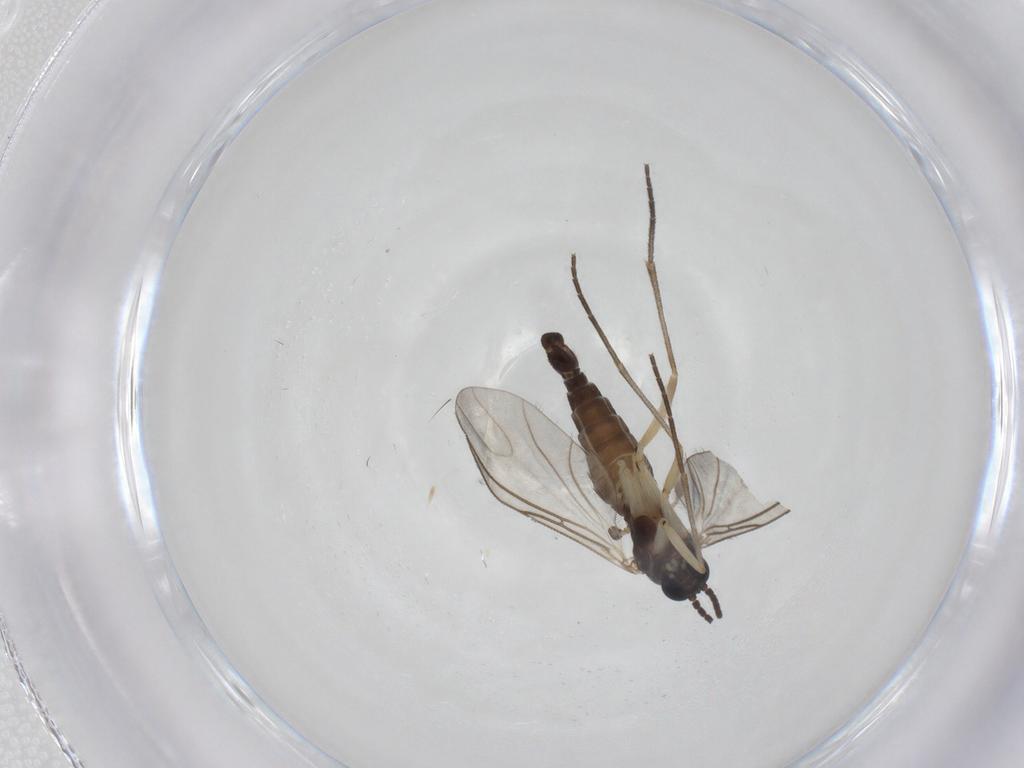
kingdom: Animalia
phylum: Arthropoda
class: Insecta
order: Diptera
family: Sciaridae
